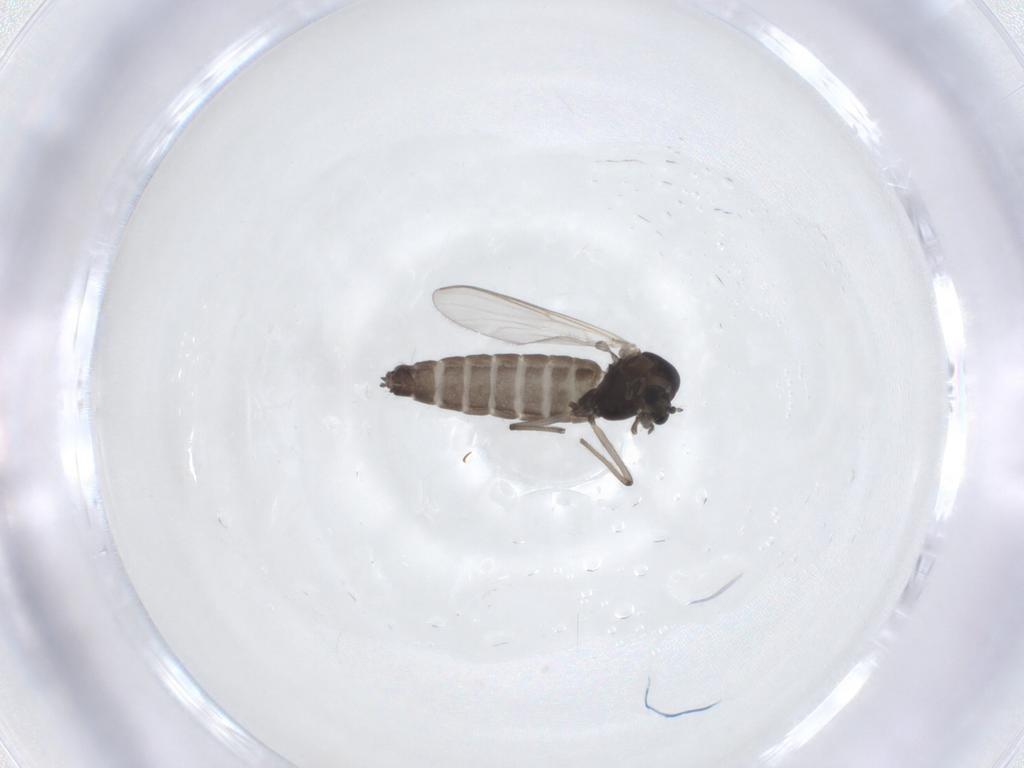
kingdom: Animalia
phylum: Arthropoda
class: Insecta
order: Diptera
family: Chironomidae
